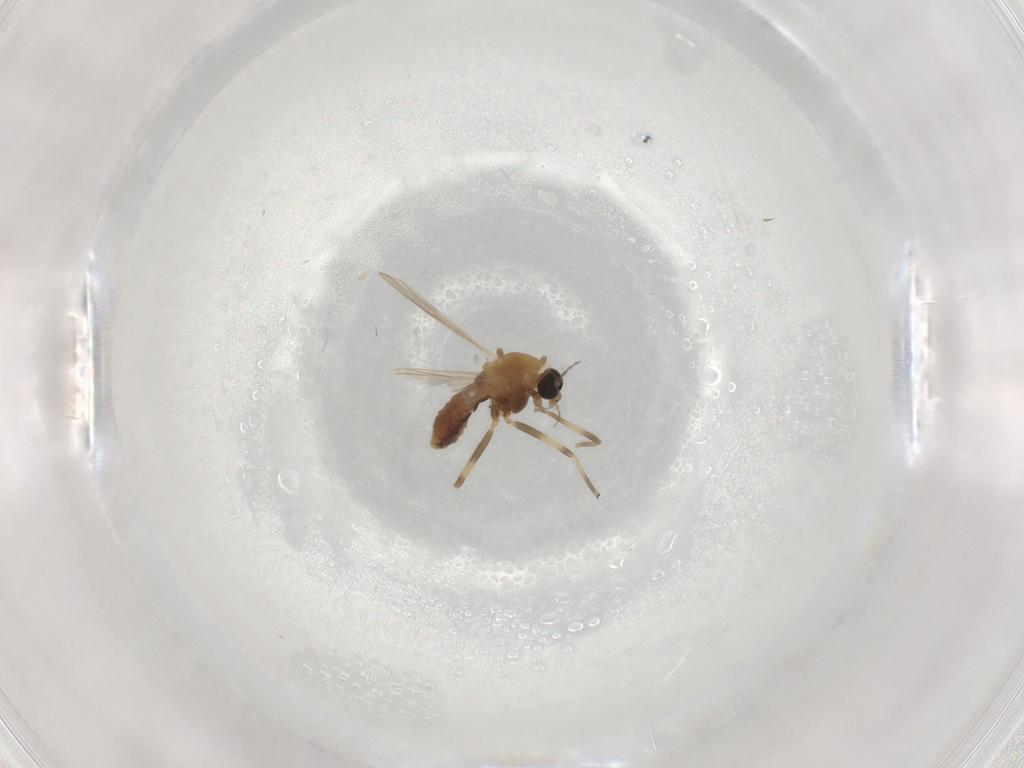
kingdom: Animalia
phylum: Arthropoda
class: Insecta
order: Diptera
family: Chironomidae
